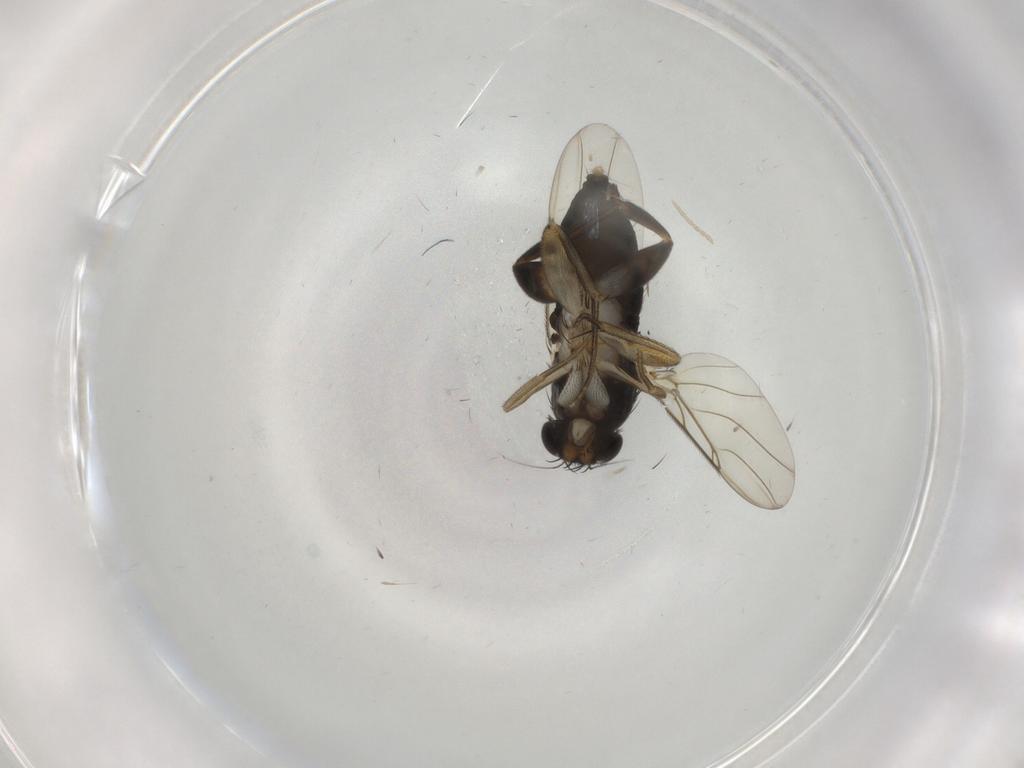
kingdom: Animalia
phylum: Arthropoda
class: Insecta
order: Diptera
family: Phoridae
